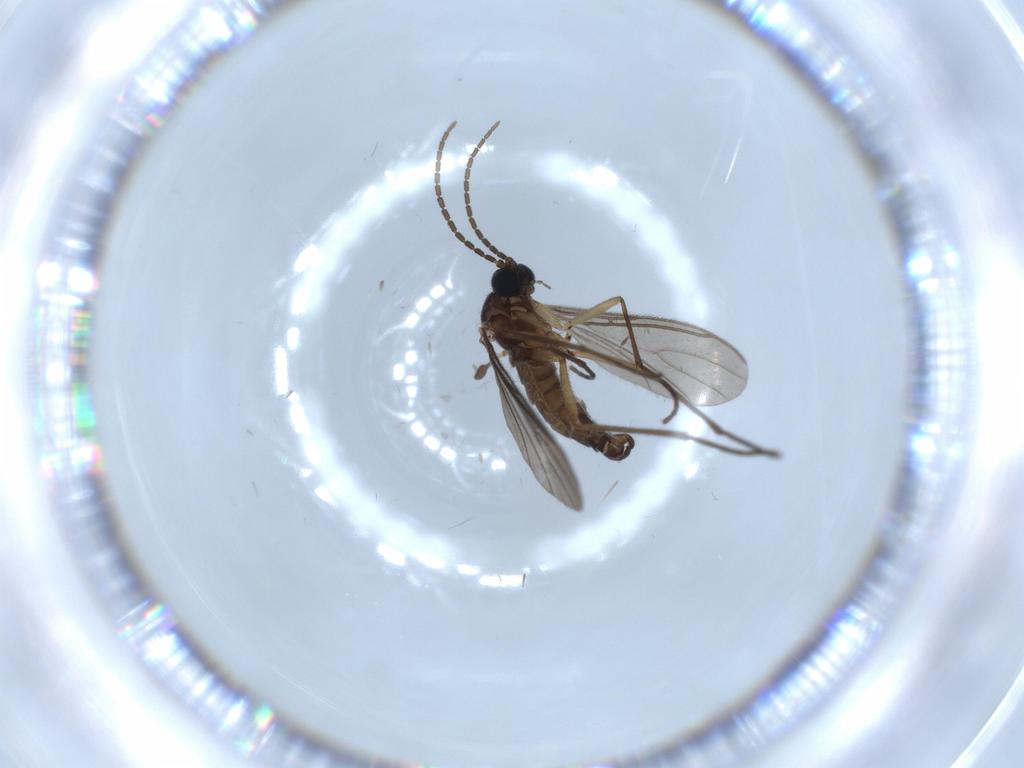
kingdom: Animalia
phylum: Arthropoda
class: Insecta
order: Diptera
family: Sciaridae
